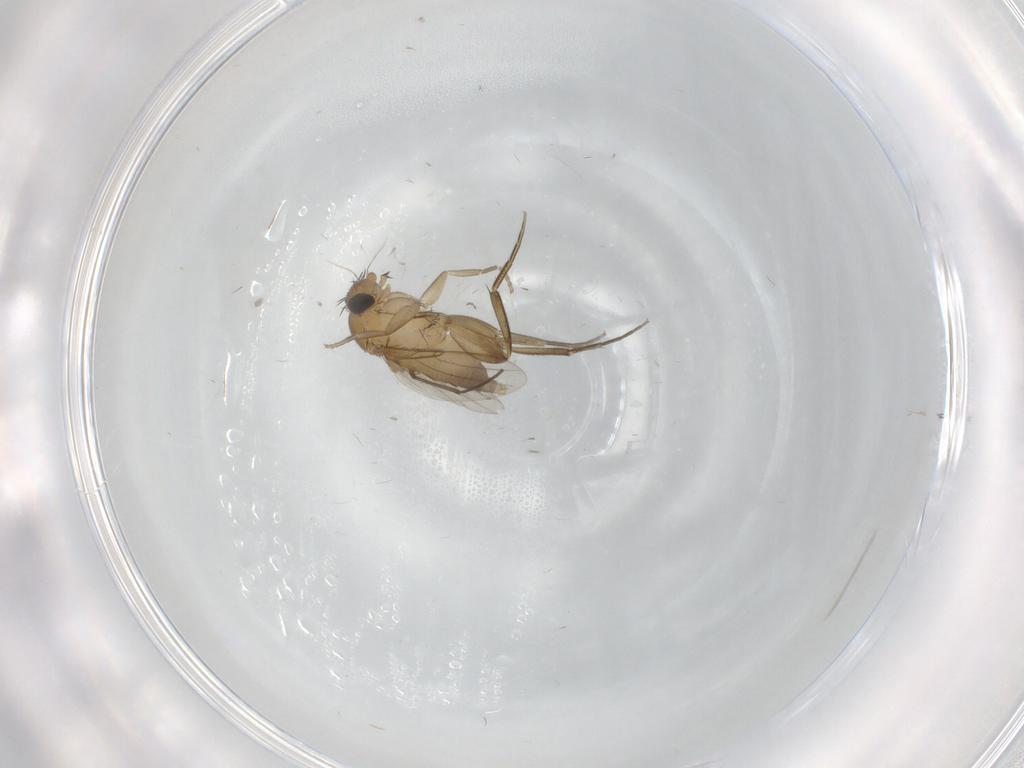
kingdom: Animalia
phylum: Arthropoda
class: Insecta
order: Diptera
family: Phoridae
